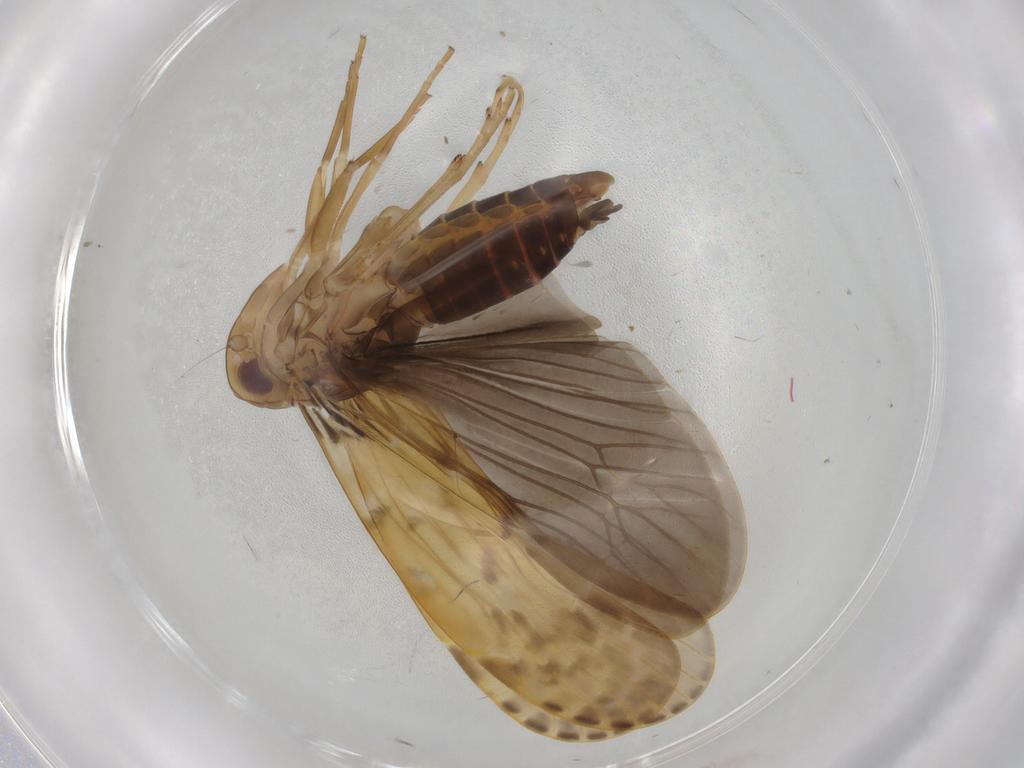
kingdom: Animalia
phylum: Arthropoda
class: Insecta
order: Hemiptera
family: Achilidae
